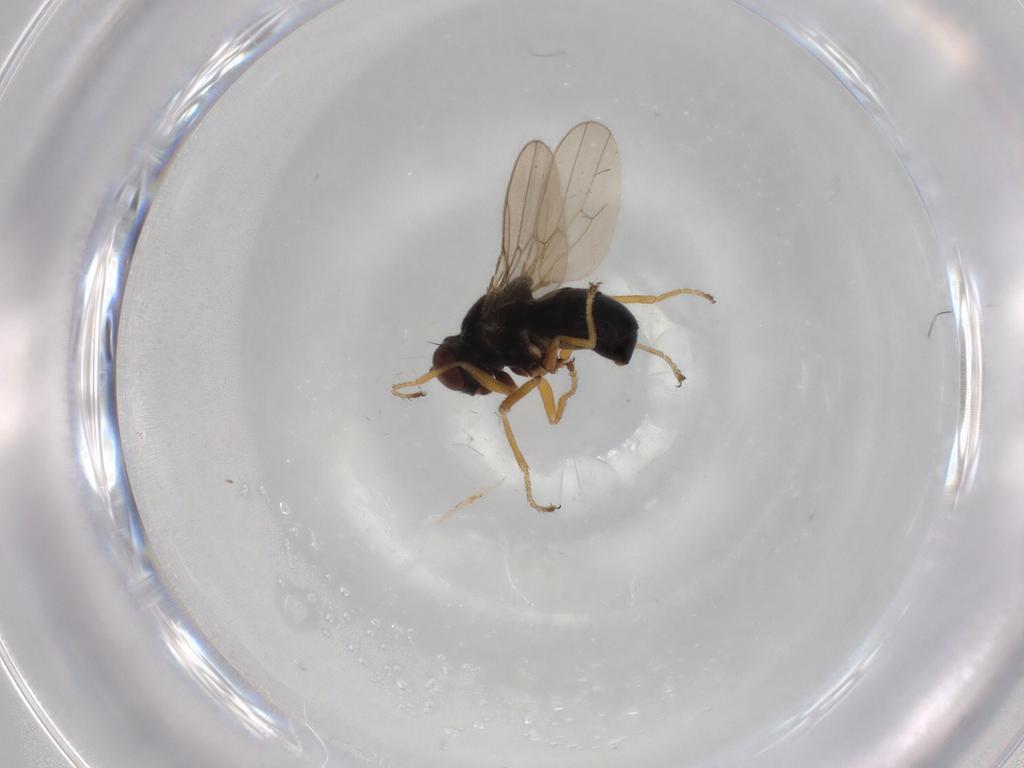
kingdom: Animalia
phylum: Arthropoda
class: Insecta
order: Diptera
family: Ephydridae
